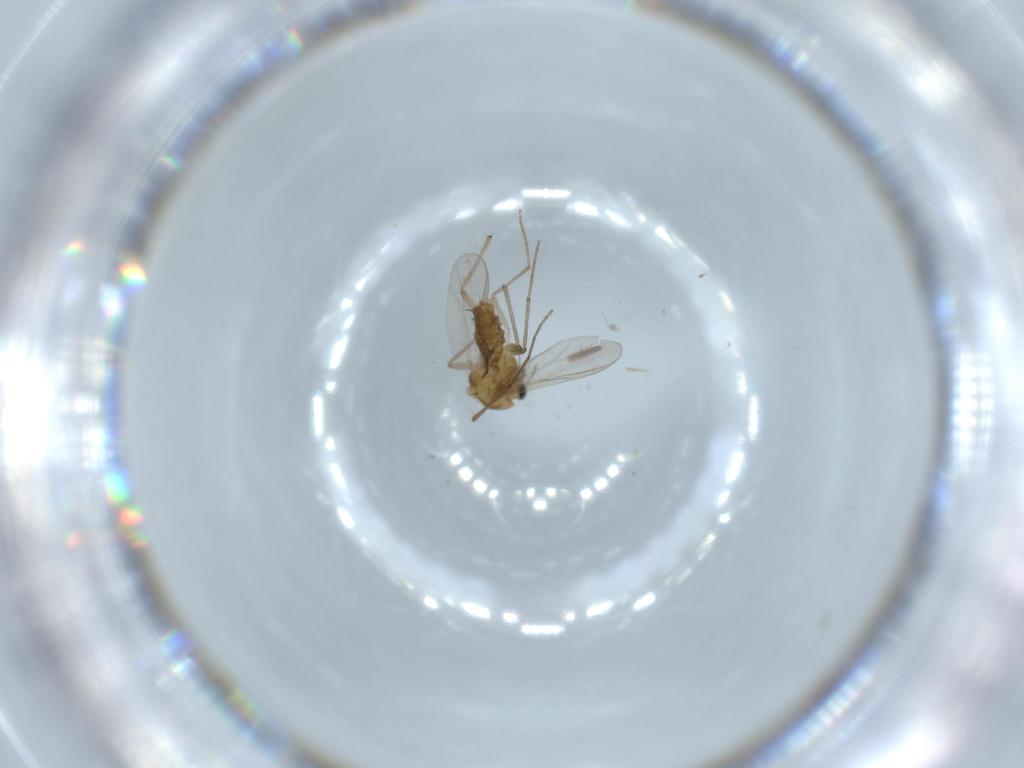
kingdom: Animalia
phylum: Arthropoda
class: Insecta
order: Diptera
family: Chironomidae
